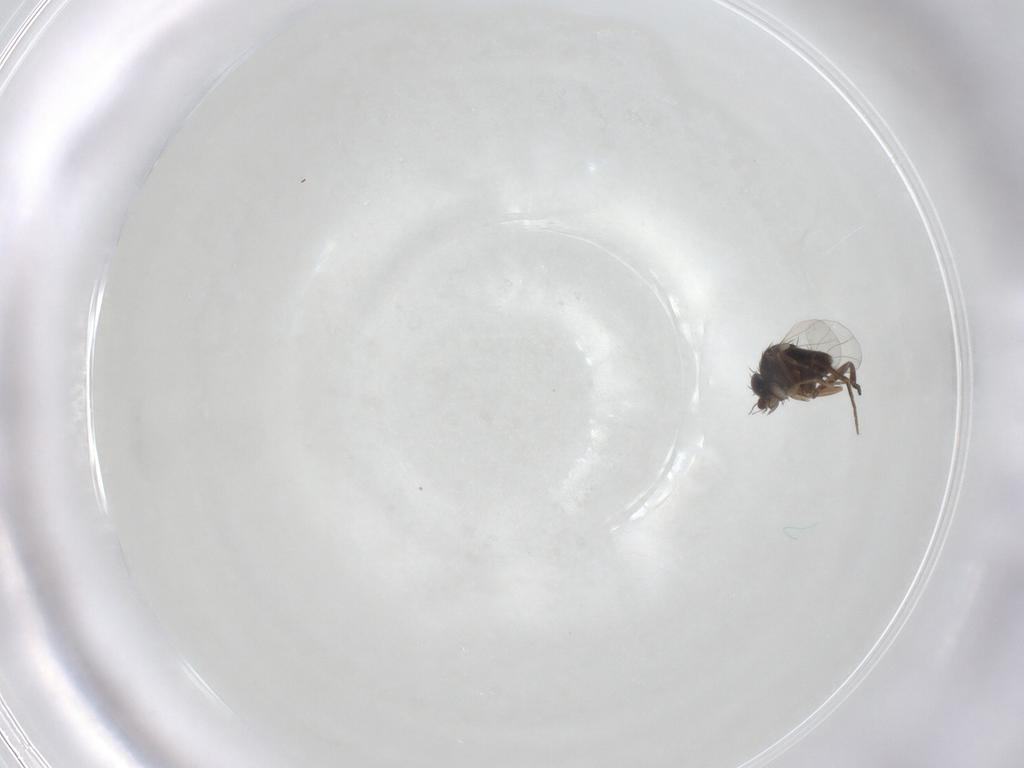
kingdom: Animalia
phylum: Arthropoda
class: Insecta
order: Diptera
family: Phoridae
